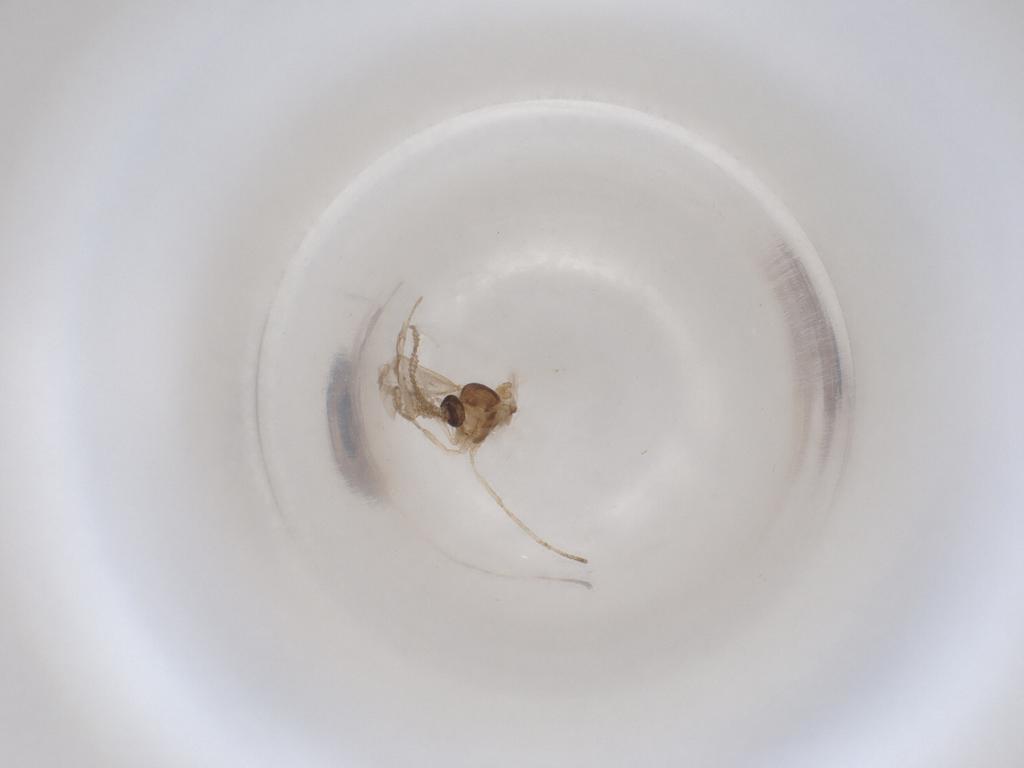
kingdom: Animalia
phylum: Arthropoda
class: Insecta
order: Diptera
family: Cecidomyiidae
